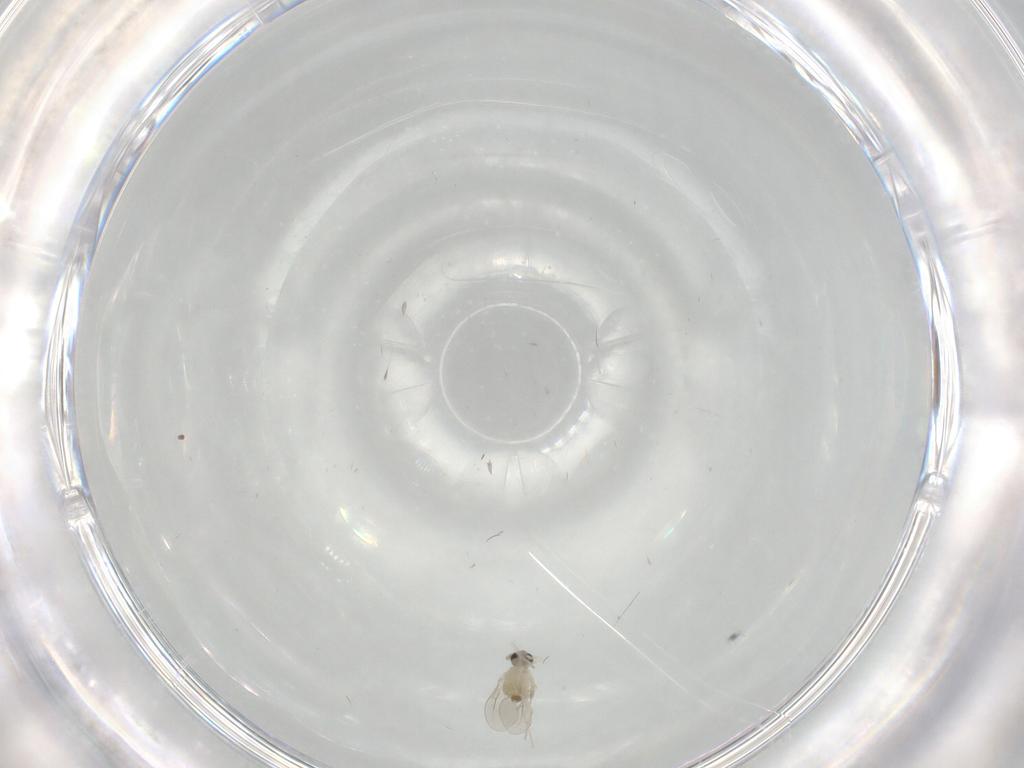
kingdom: Animalia
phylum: Arthropoda
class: Insecta
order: Diptera
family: Cecidomyiidae
